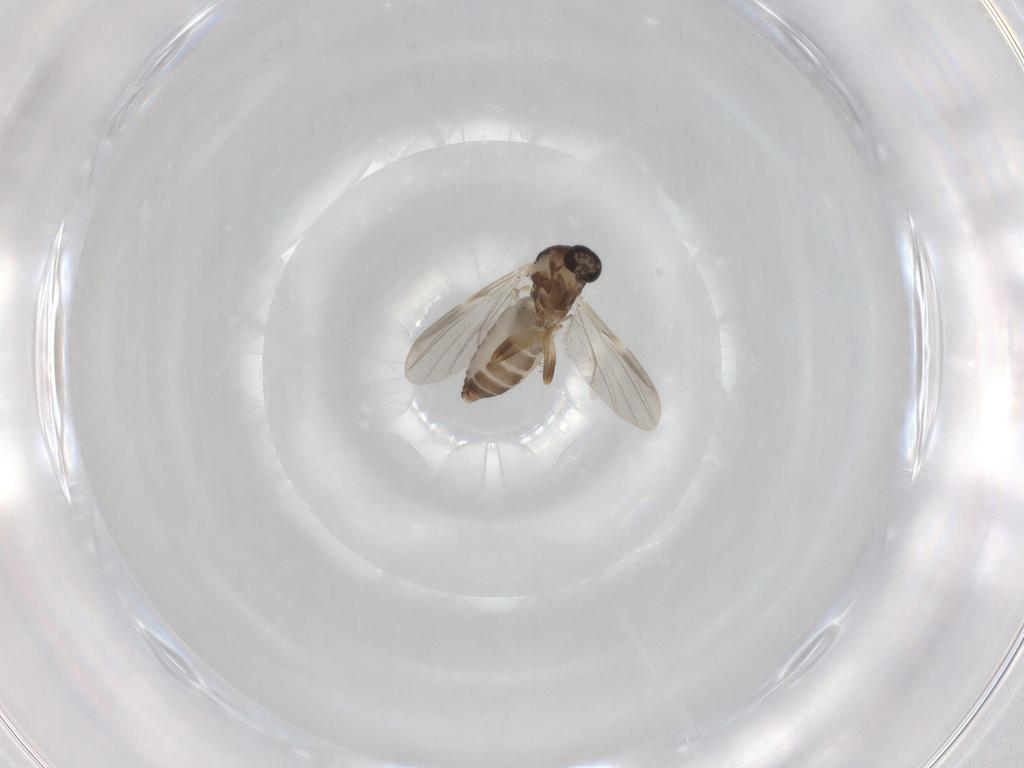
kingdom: Animalia
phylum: Arthropoda
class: Insecta
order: Diptera
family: Ceratopogonidae
